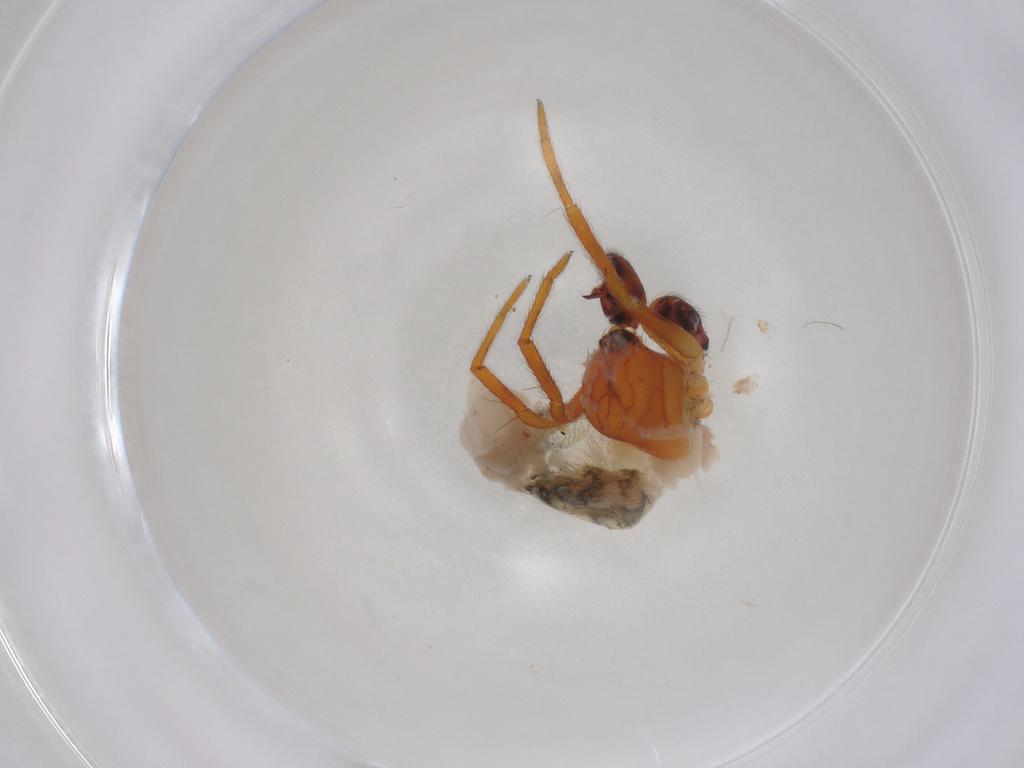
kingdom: Animalia
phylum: Arthropoda
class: Arachnida
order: Araneae
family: Theridiidae
